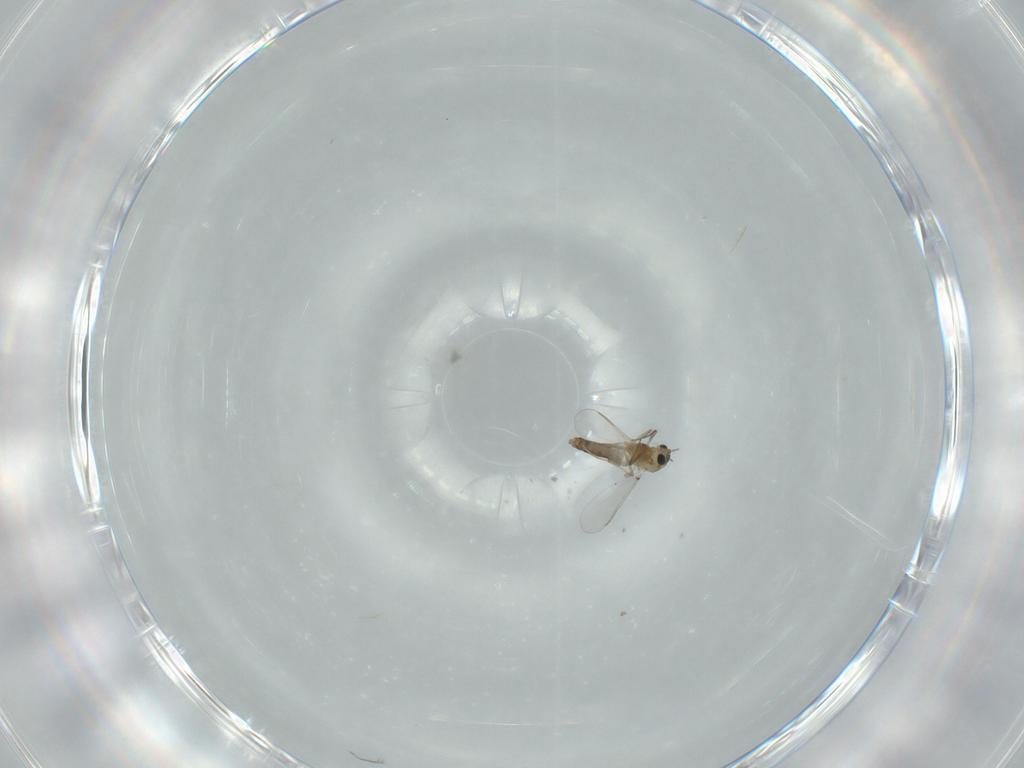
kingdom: Animalia
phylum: Arthropoda
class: Insecta
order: Diptera
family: Chironomidae
